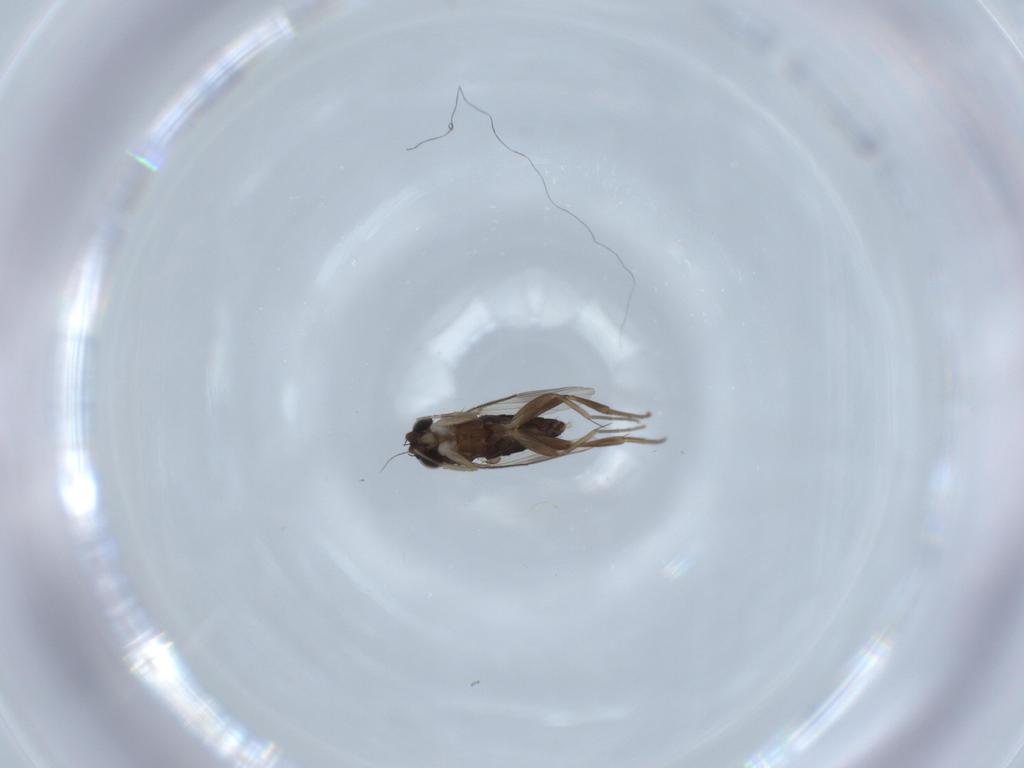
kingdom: Animalia
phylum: Arthropoda
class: Insecta
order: Diptera
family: Phoridae
